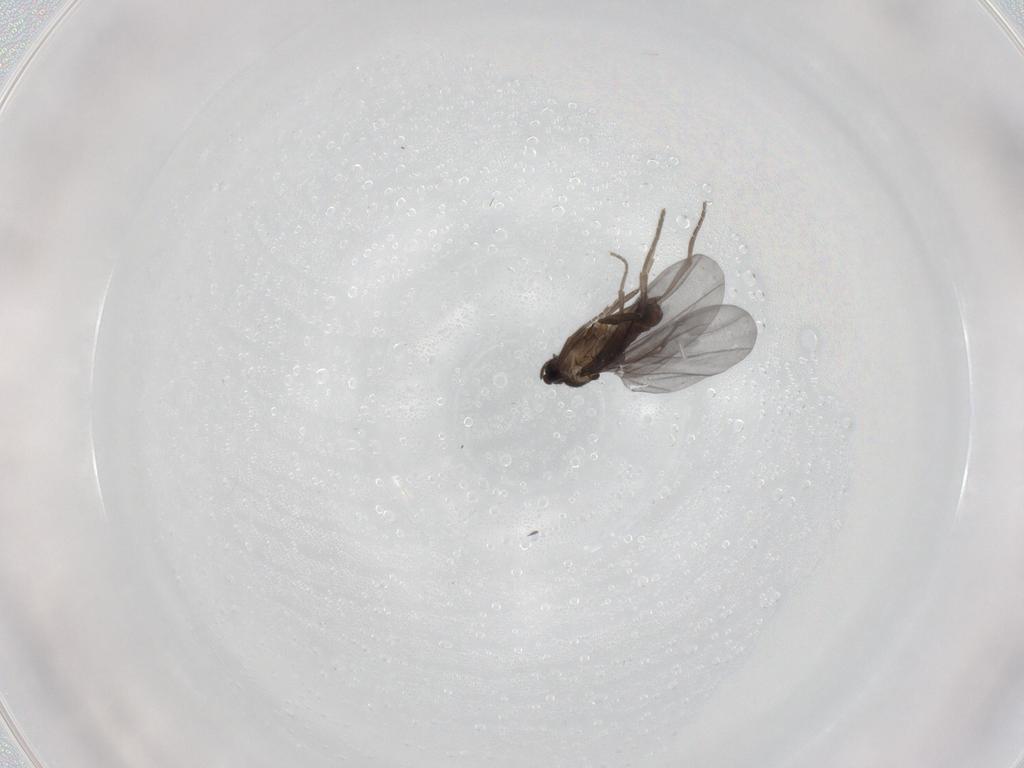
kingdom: Animalia
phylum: Arthropoda
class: Insecta
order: Diptera
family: Phoridae
